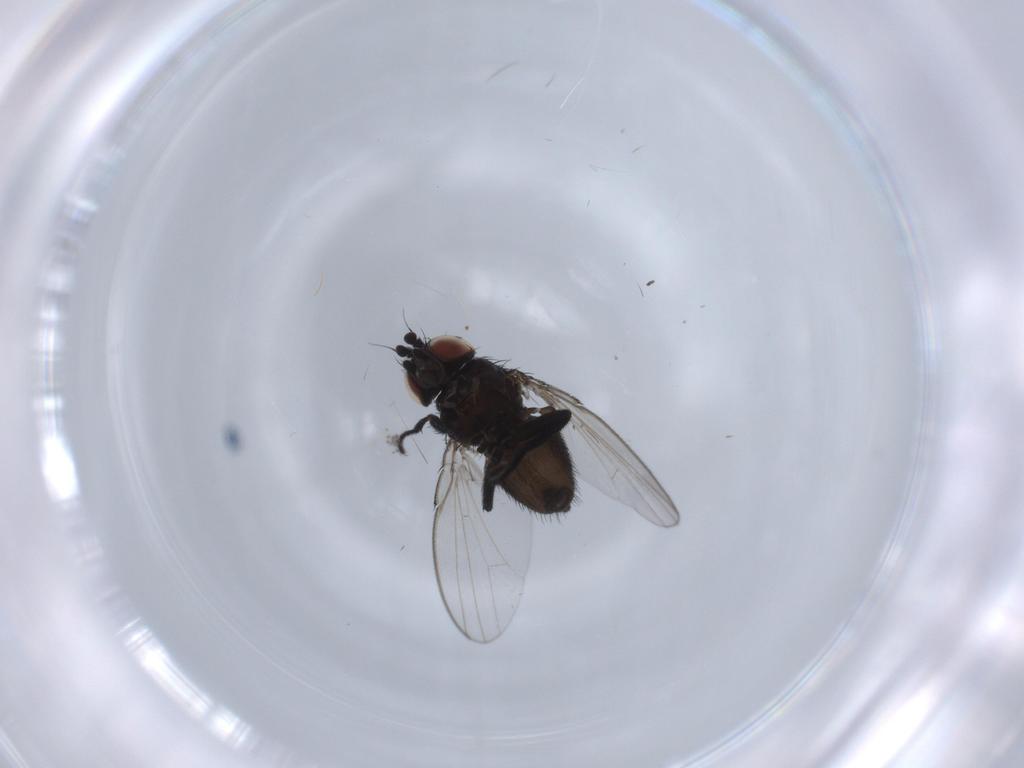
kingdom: Animalia
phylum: Arthropoda
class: Insecta
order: Diptera
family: Milichiidae
